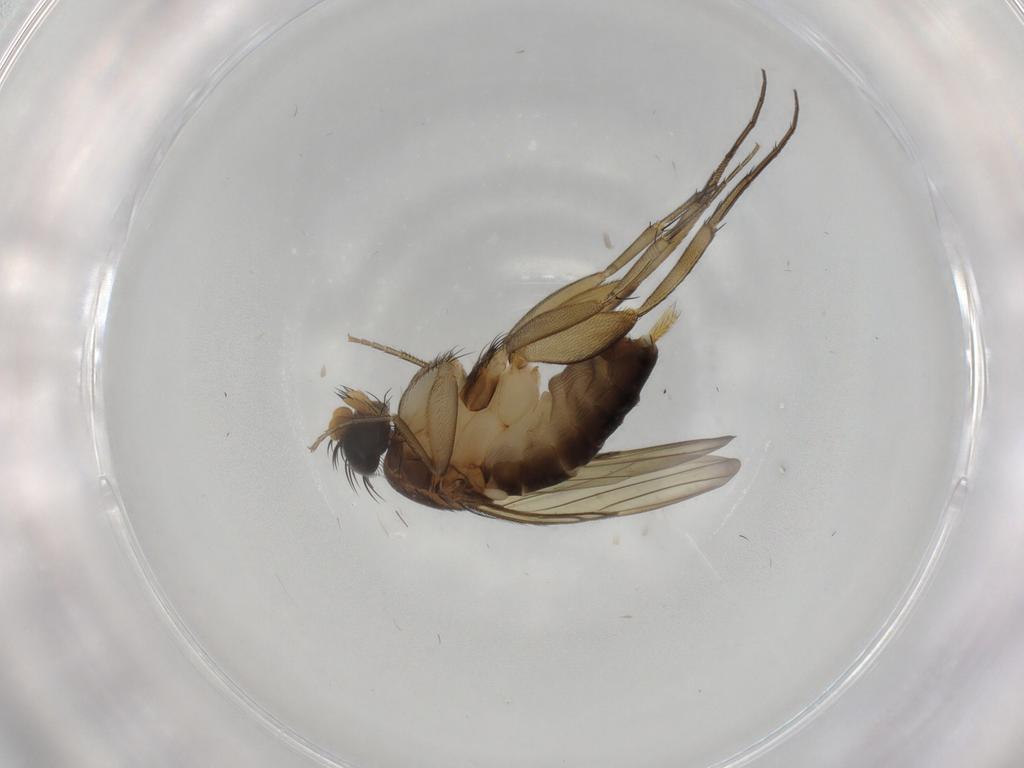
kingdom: Animalia
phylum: Arthropoda
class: Insecta
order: Diptera
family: Chironomidae
